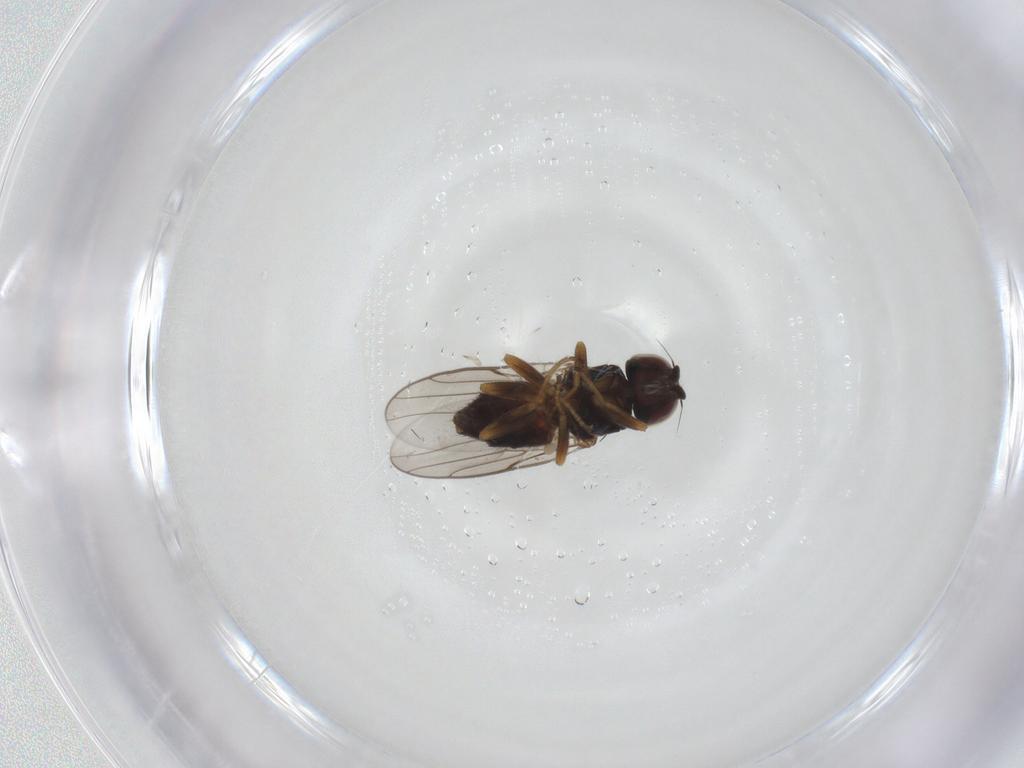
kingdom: Animalia
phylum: Arthropoda
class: Insecta
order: Diptera
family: Chloropidae
